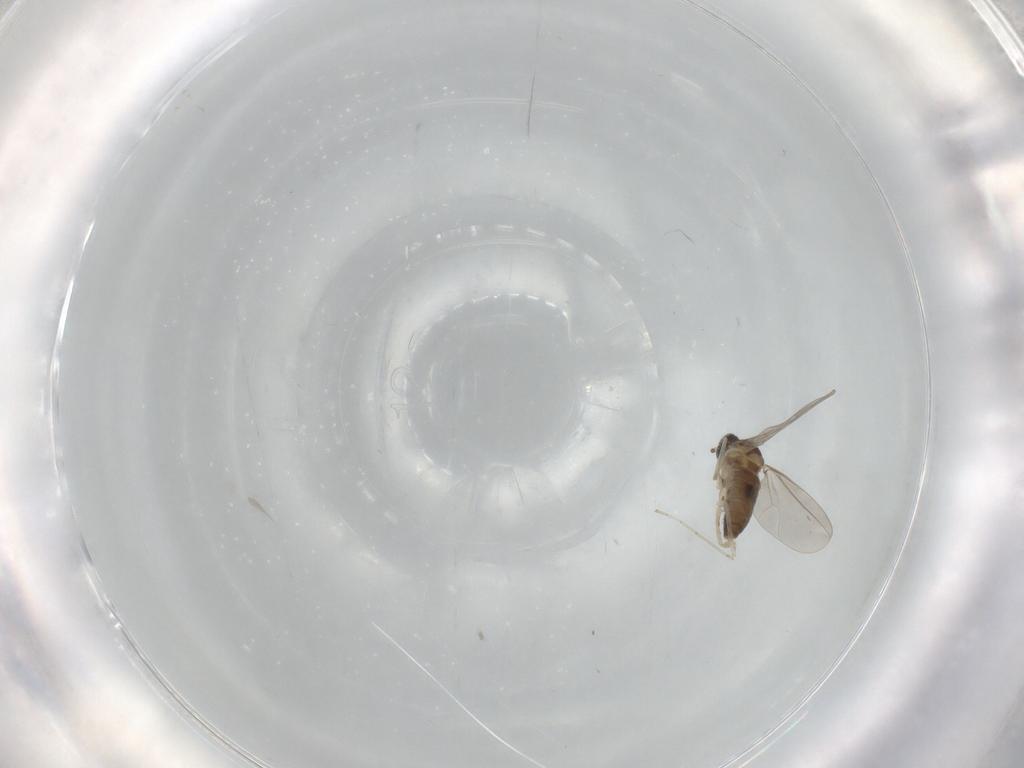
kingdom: Animalia
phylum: Arthropoda
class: Insecta
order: Diptera
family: Cecidomyiidae
